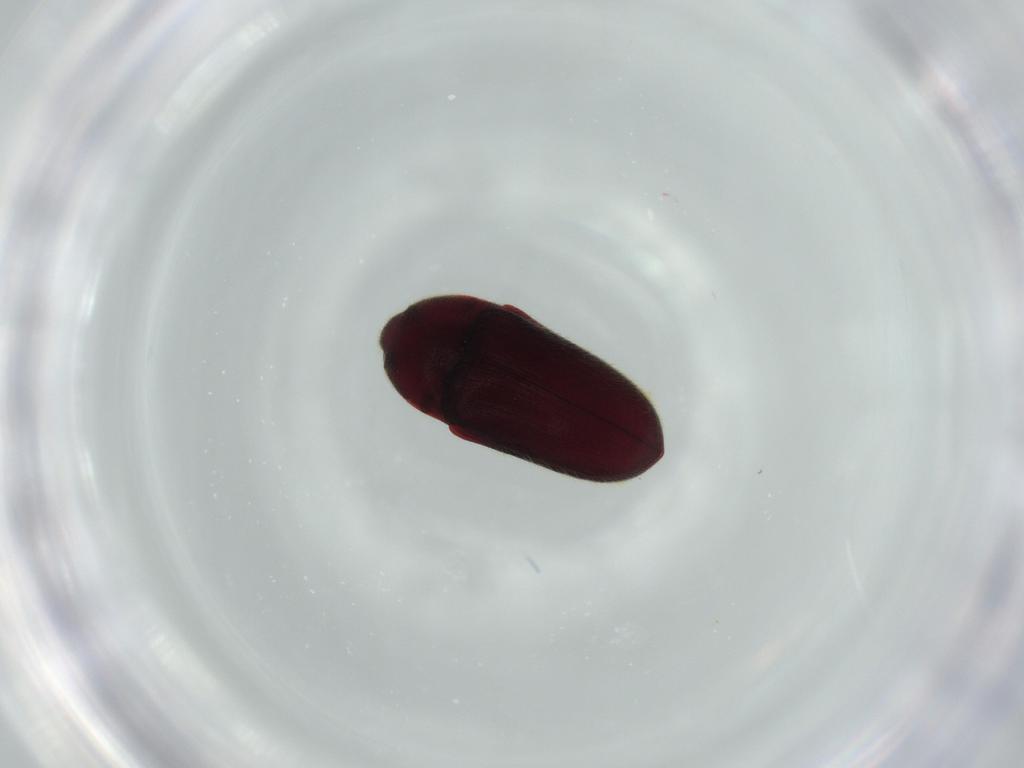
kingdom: Animalia
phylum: Arthropoda
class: Insecta
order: Coleoptera
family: Throscidae
